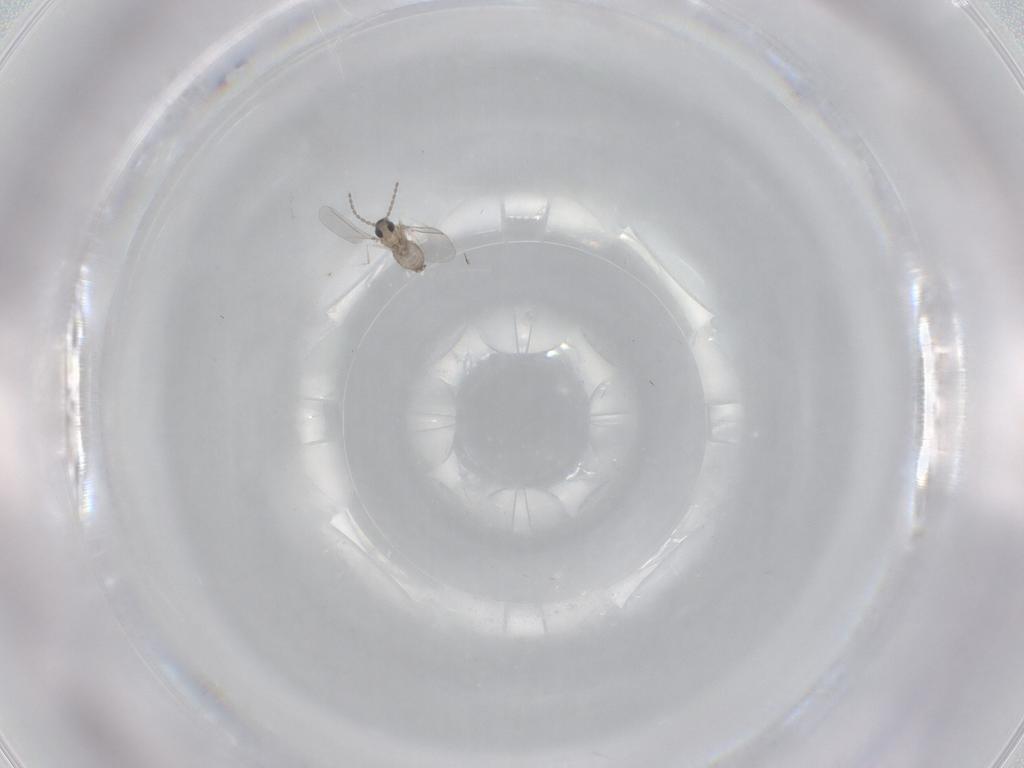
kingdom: Animalia
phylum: Arthropoda
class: Insecta
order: Diptera
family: Cecidomyiidae
